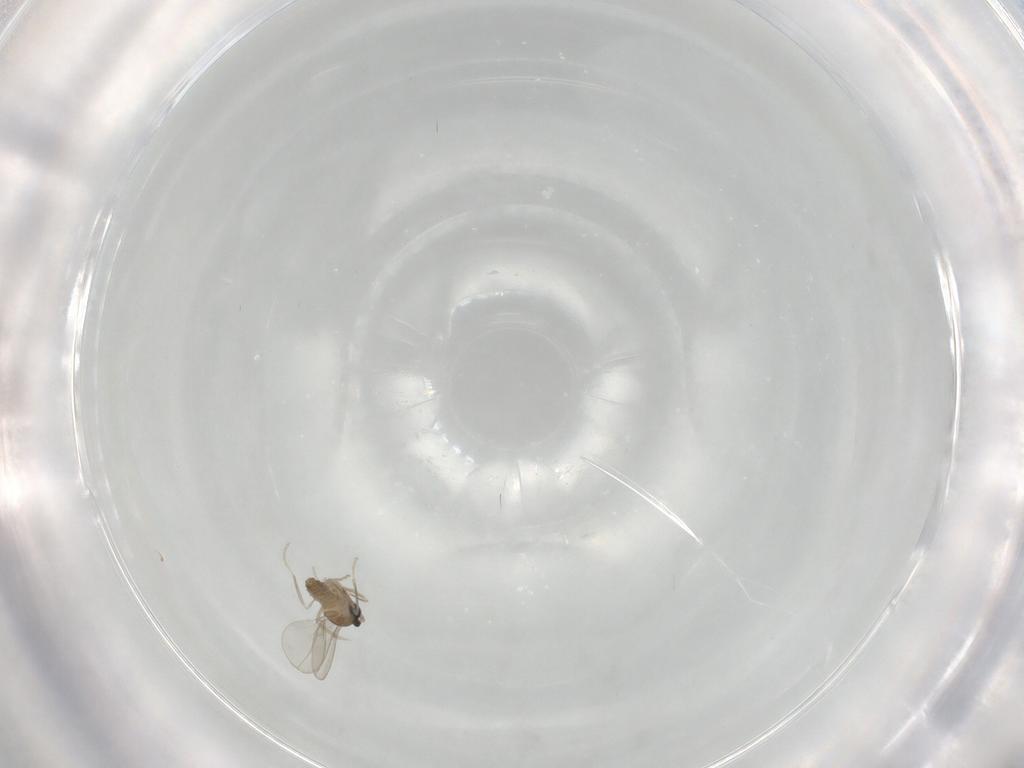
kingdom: Animalia
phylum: Arthropoda
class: Insecta
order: Diptera
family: Cecidomyiidae
